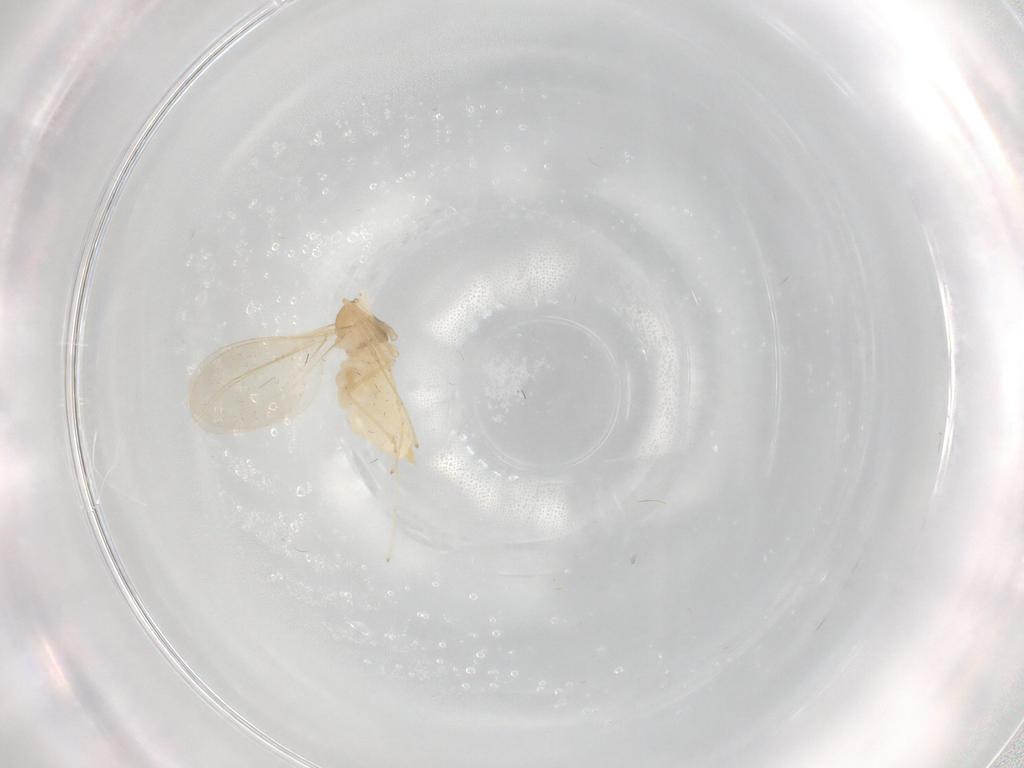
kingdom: Animalia
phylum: Arthropoda
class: Insecta
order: Diptera
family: Cecidomyiidae
